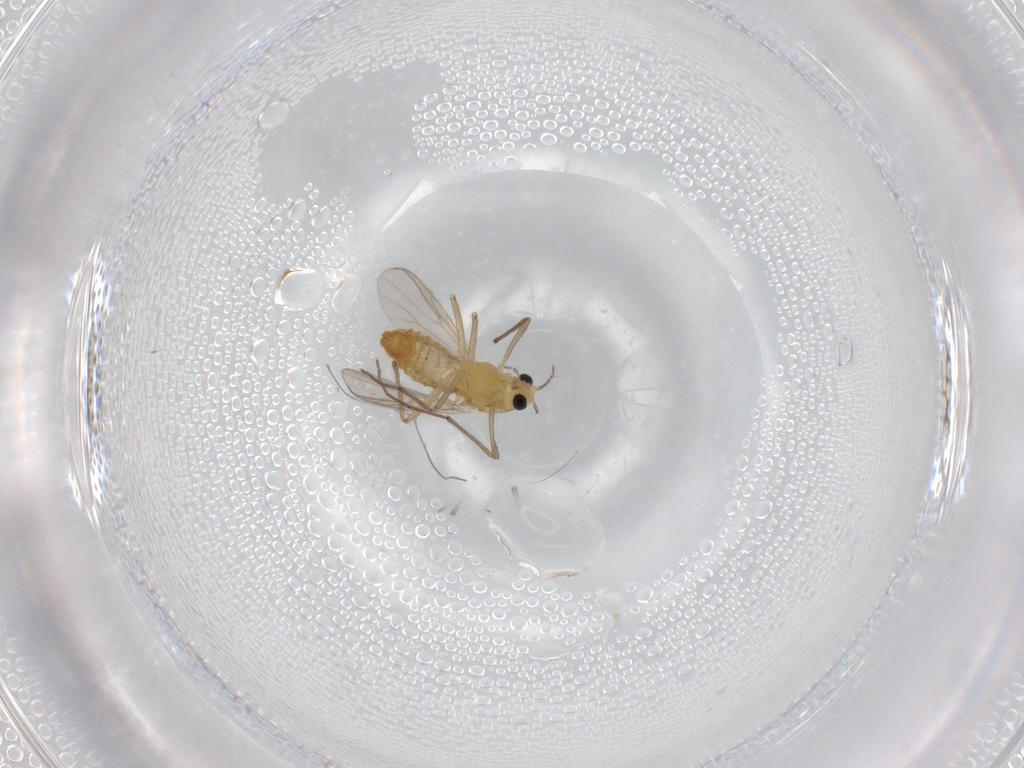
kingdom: Animalia
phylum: Arthropoda
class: Insecta
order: Diptera
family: Chironomidae
